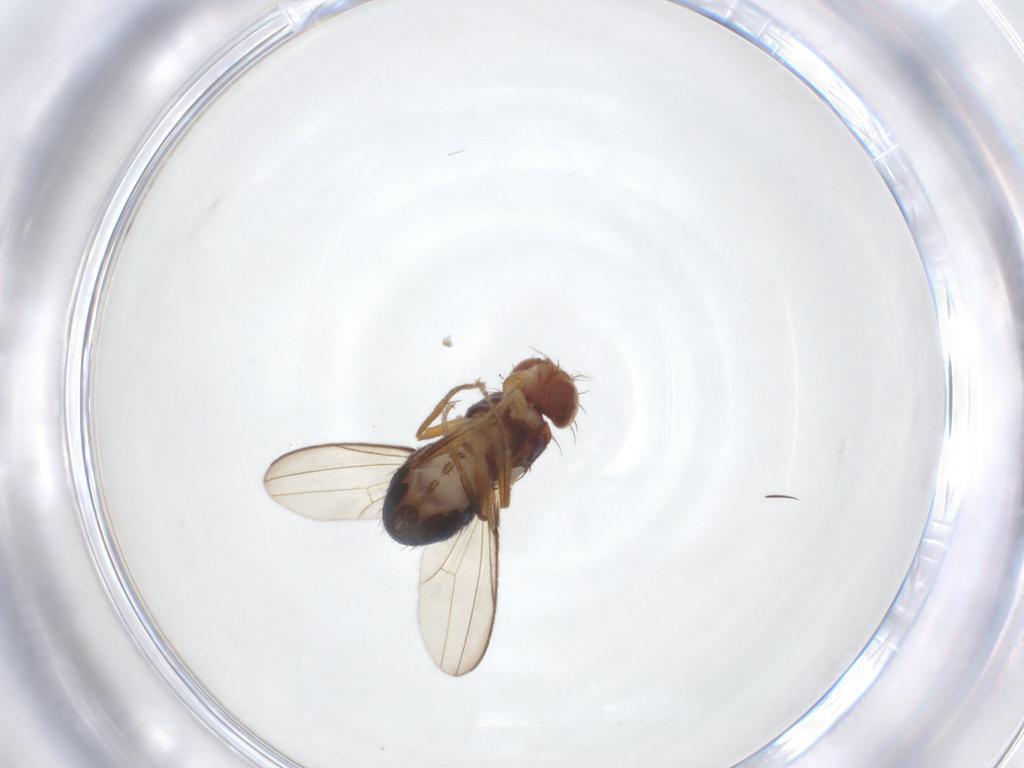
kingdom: Animalia
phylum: Arthropoda
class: Insecta
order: Diptera
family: Drosophilidae
